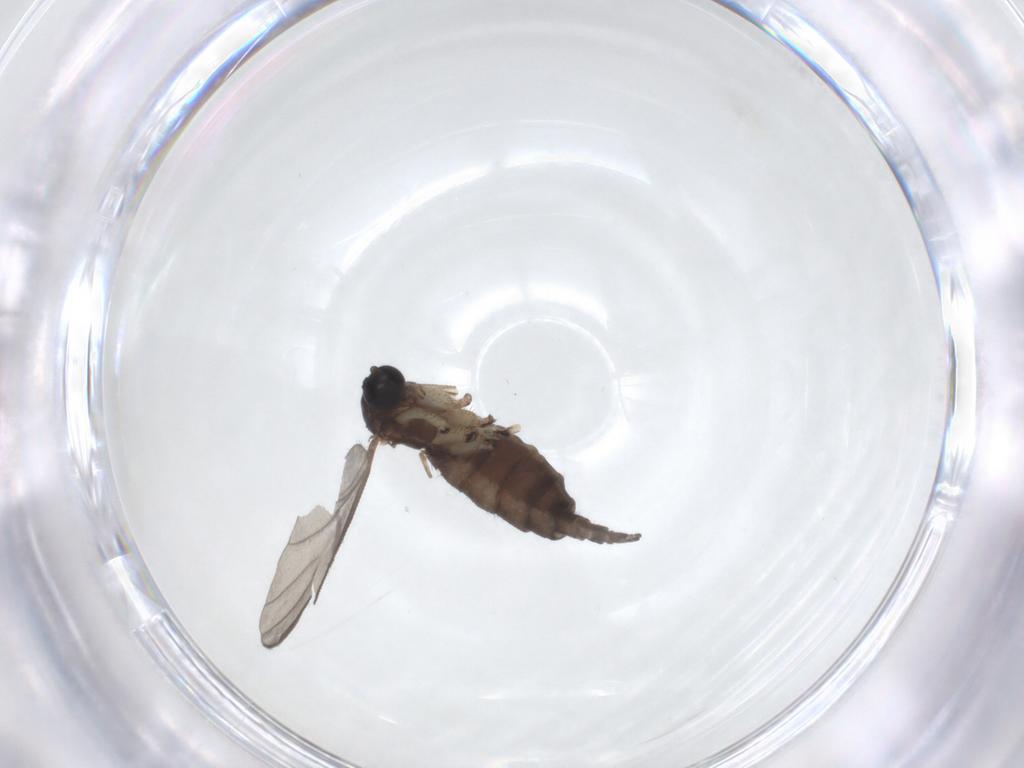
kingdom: Animalia
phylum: Arthropoda
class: Insecta
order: Diptera
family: Sciaridae
